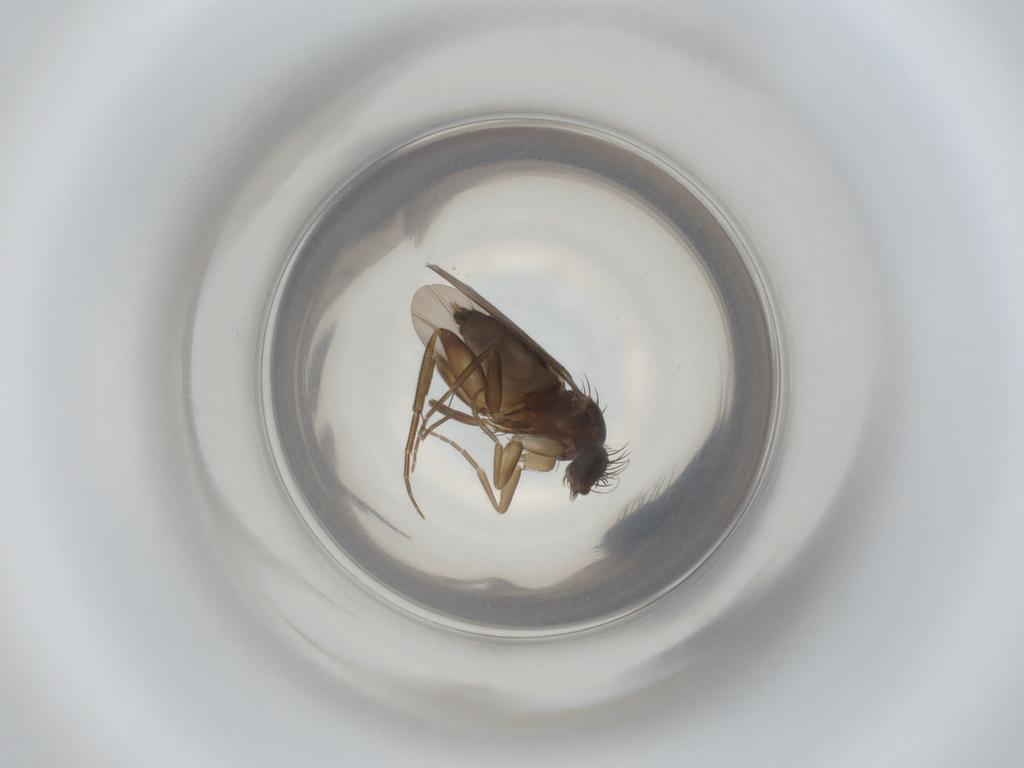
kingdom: Animalia
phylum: Arthropoda
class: Insecta
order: Diptera
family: Phoridae
